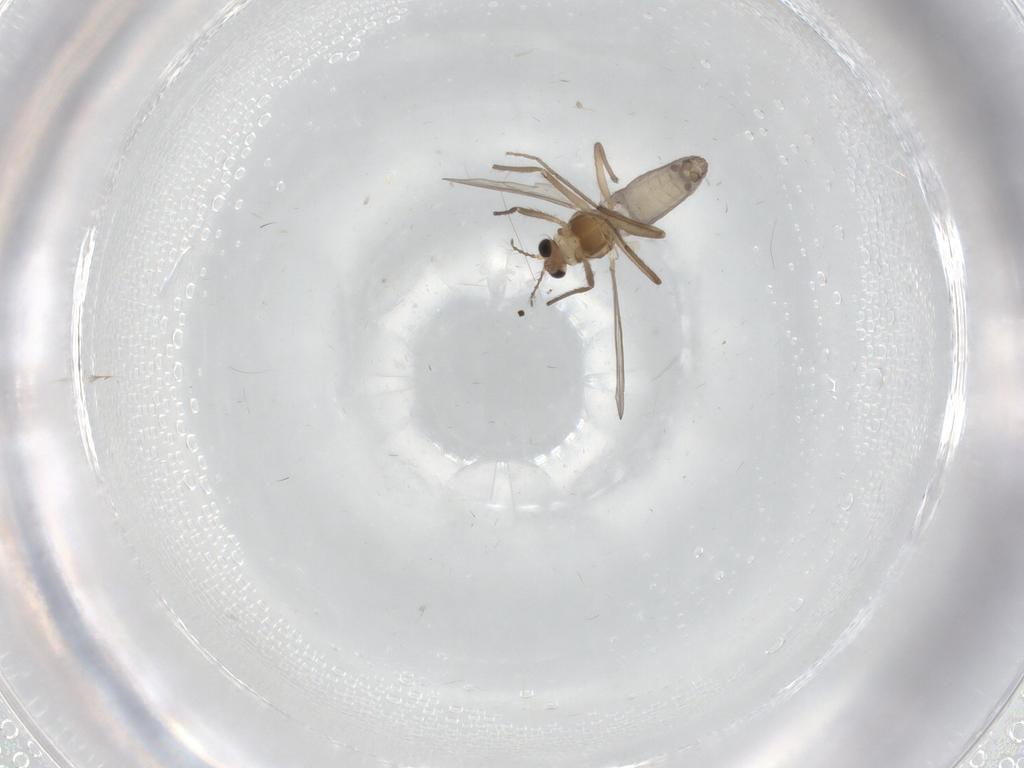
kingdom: Animalia
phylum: Arthropoda
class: Insecta
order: Diptera
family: Chironomidae
